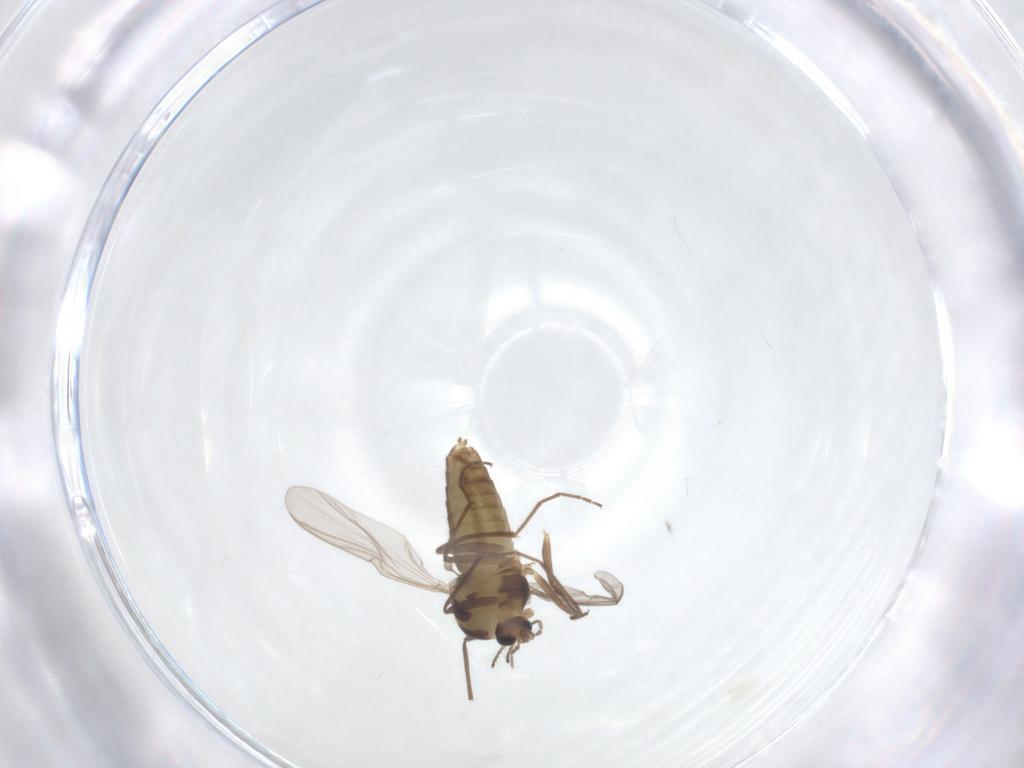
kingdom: Animalia
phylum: Arthropoda
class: Insecta
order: Diptera
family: Chironomidae
